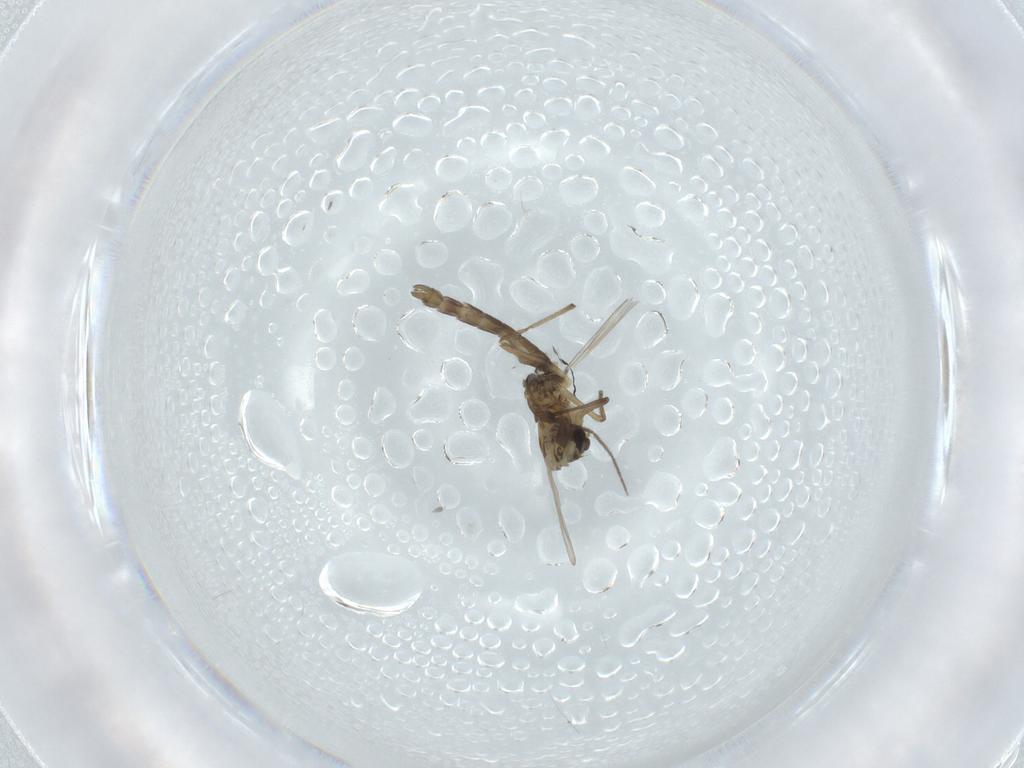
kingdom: Animalia
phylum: Arthropoda
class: Insecta
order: Diptera
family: Chironomidae
